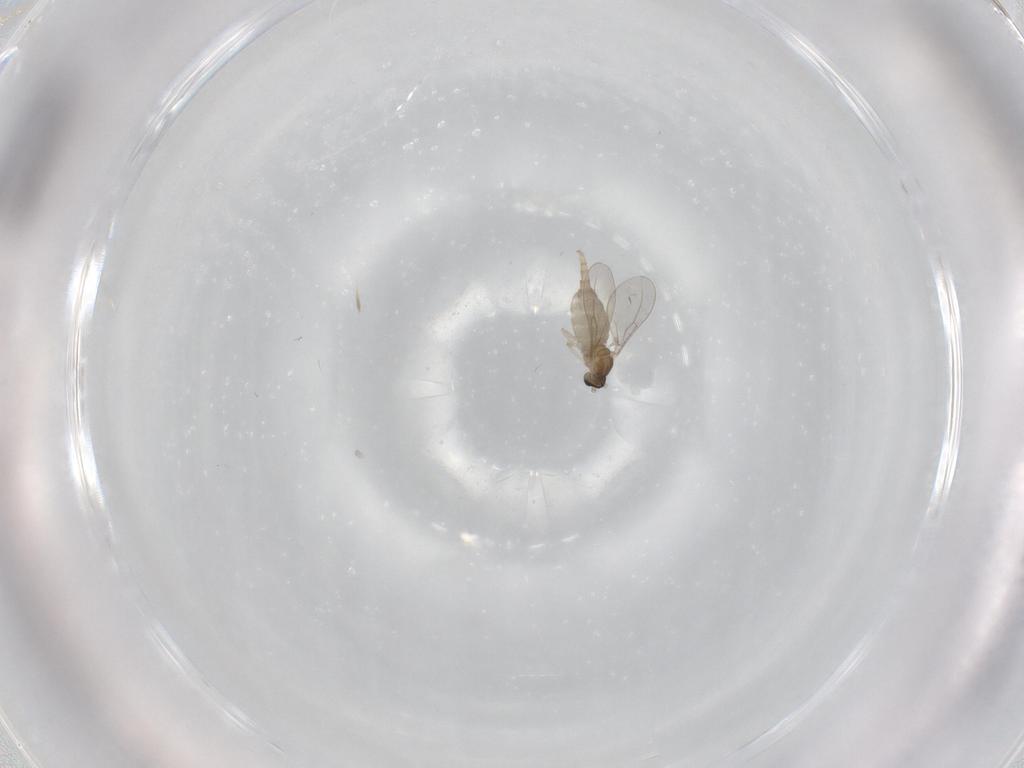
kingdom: Animalia
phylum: Arthropoda
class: Insecta
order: Diptera
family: Cecidomyiidae
